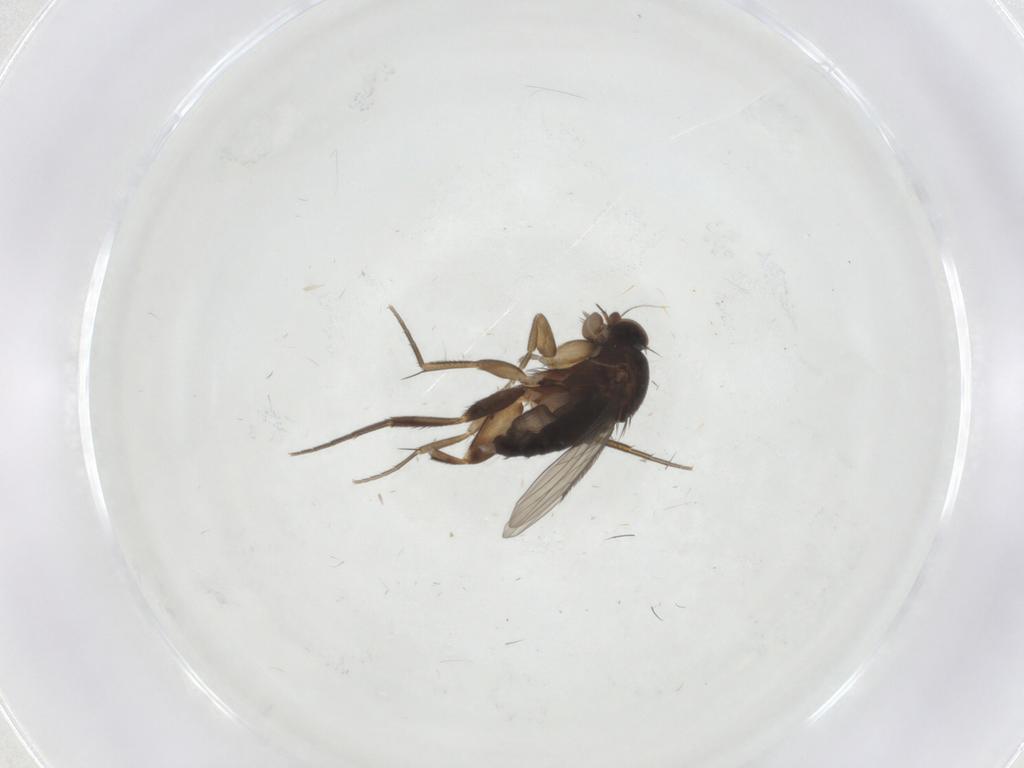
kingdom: Animalia
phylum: Arthropoda
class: Insecta
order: Diptera
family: Phoridae
